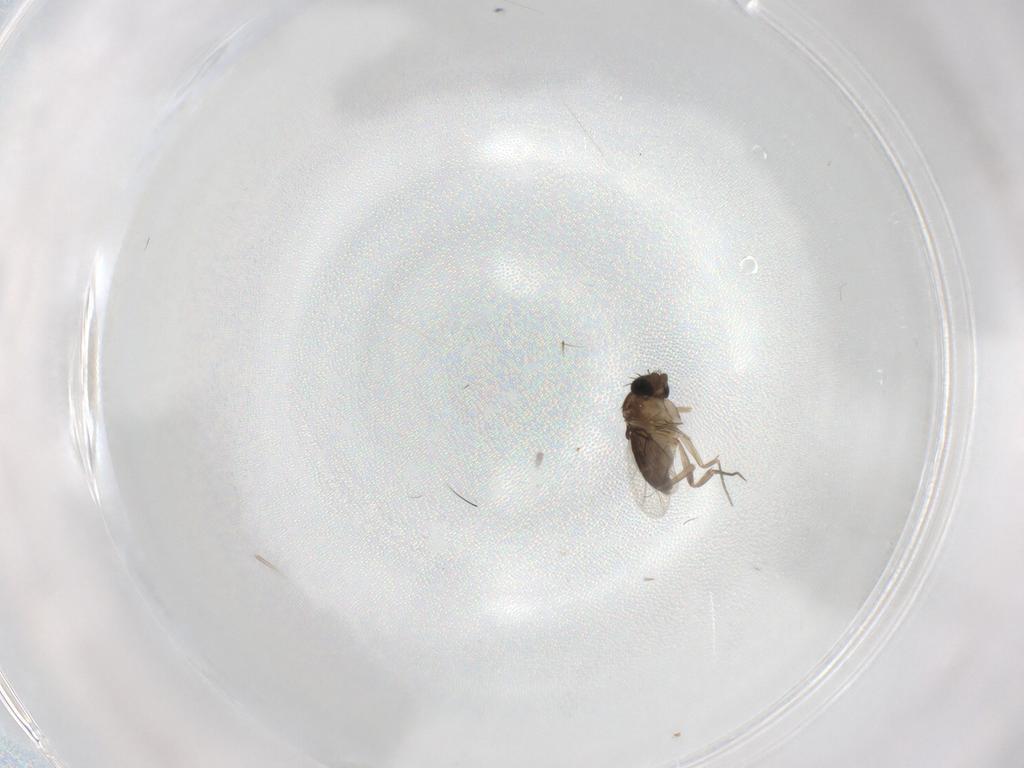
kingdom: Animalia
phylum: Arthropoda
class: Insecta
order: Diptera
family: Phoridae
